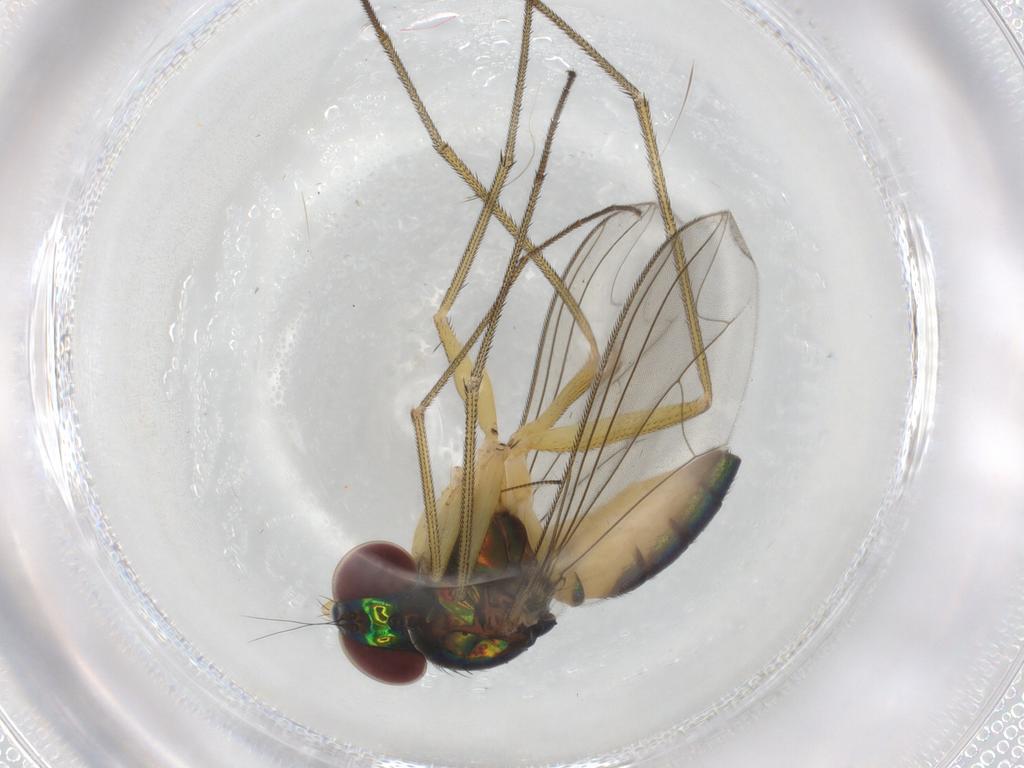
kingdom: Animalia
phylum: Arthropoda
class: Insecta
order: Diptera
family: Dolichopodidae
